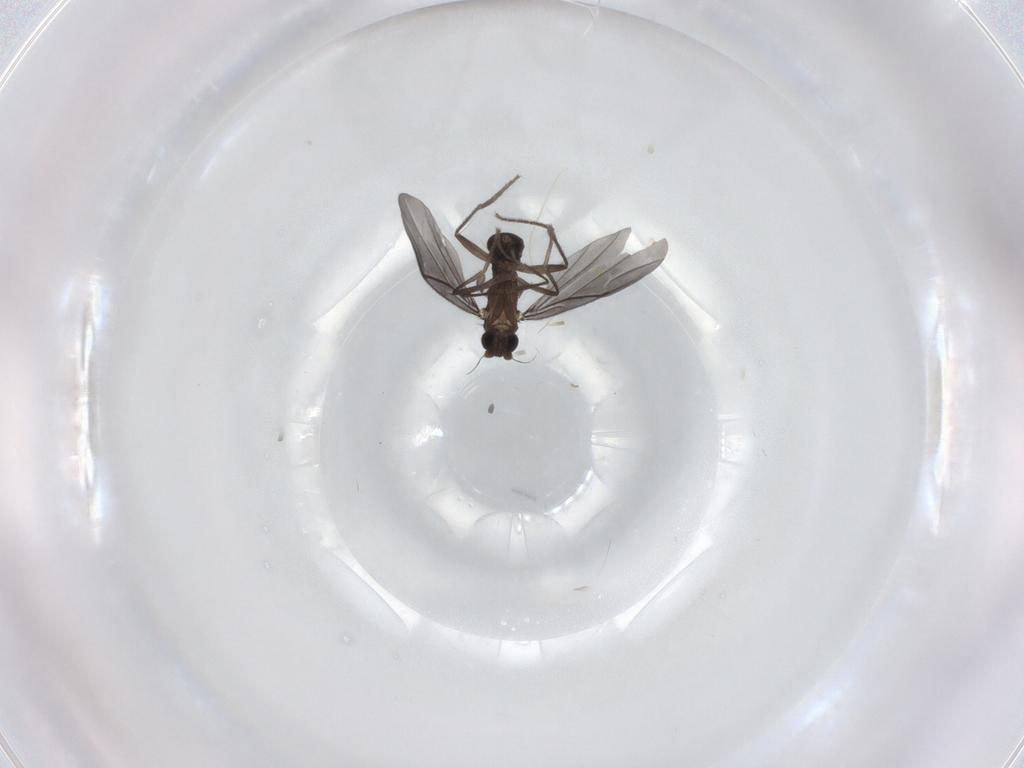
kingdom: Animalia
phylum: Arthropoda
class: Insecta
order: Diptera
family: Phoridae
